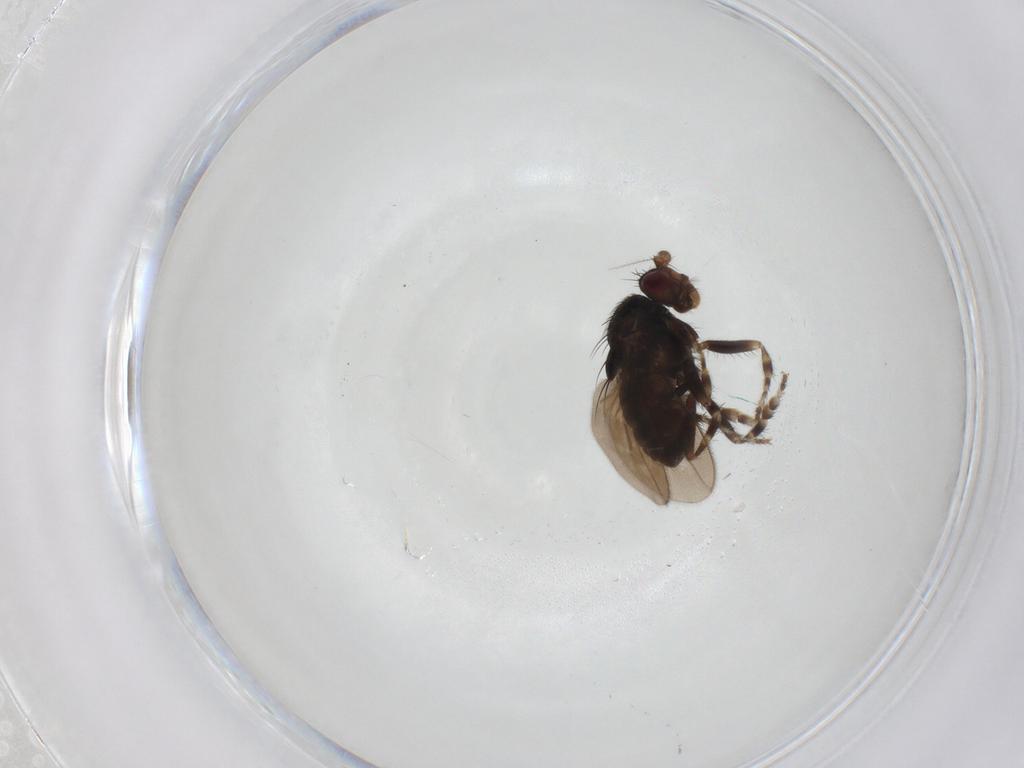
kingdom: Animalia
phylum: Arthropoda
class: Insecta
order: Diptera
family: Sphaeroceridae
